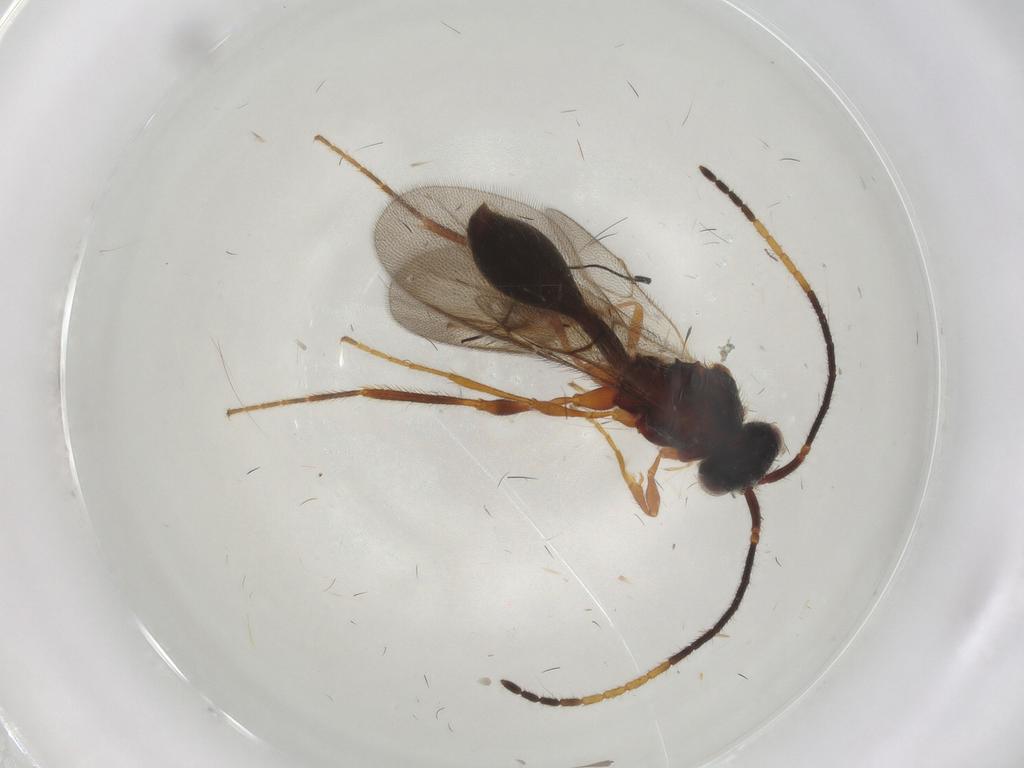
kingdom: Animalia
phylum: Arthropoda
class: Insecta
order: Hymenoptera
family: Diapriidae
